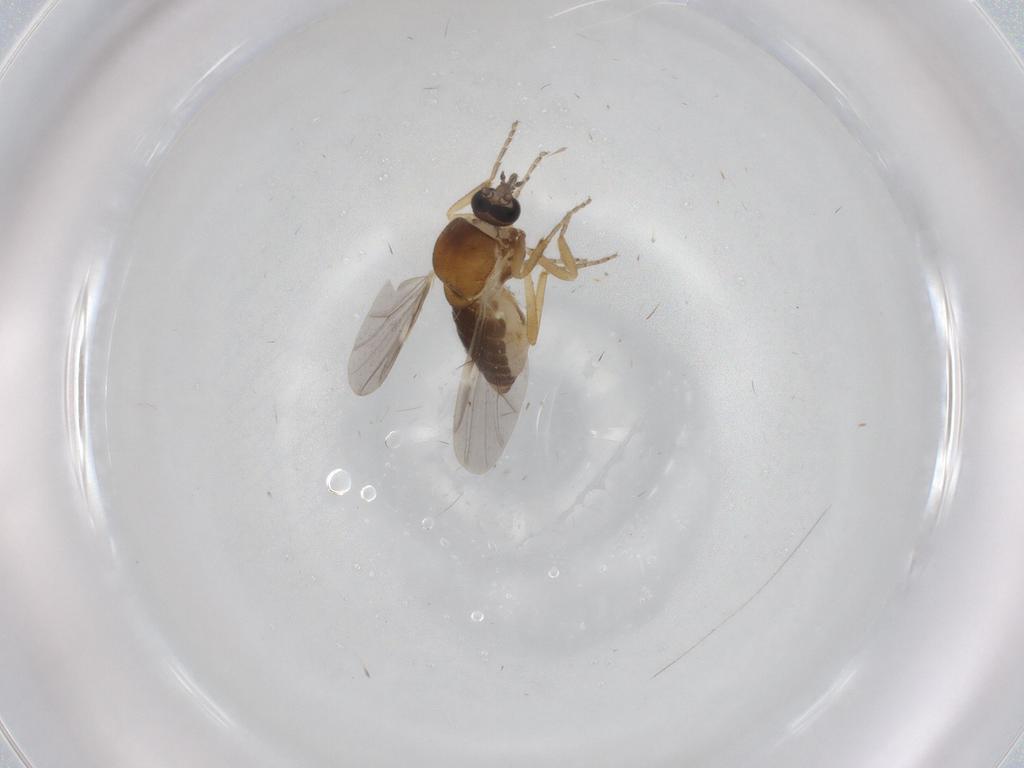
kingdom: Animalia
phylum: Arthropoda
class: Insecta
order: Diptera
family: Ceratopogonidae
